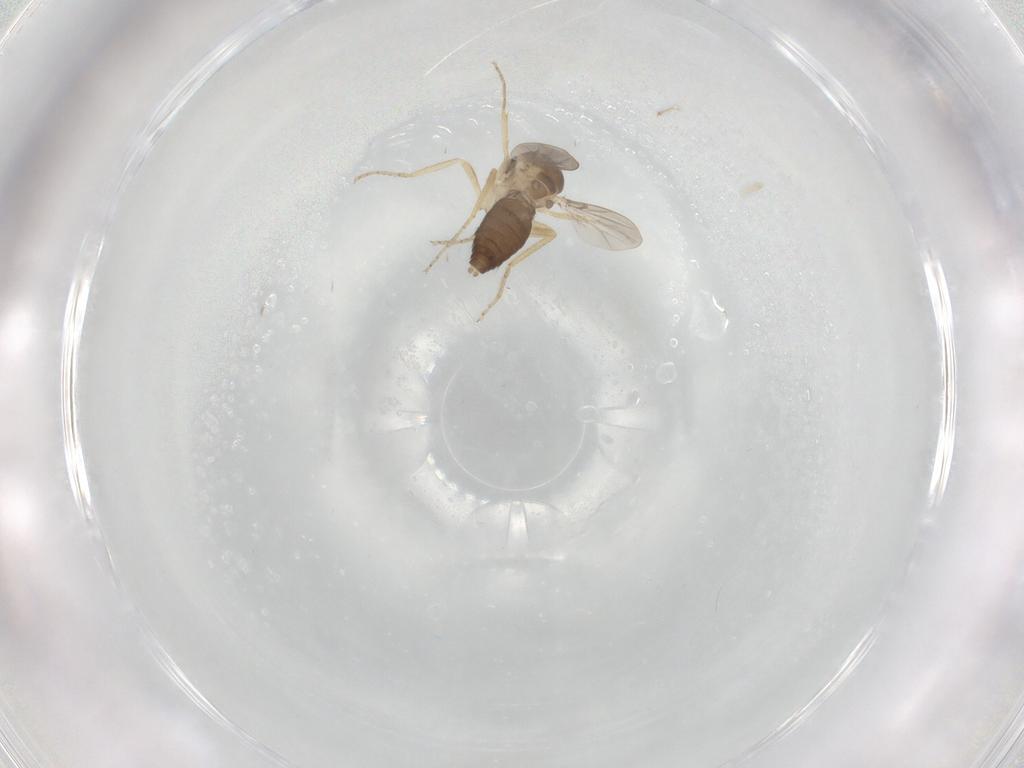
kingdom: Animalia
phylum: Arthropoda
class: Insecta
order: Diptera
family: Ceratopogonidae
